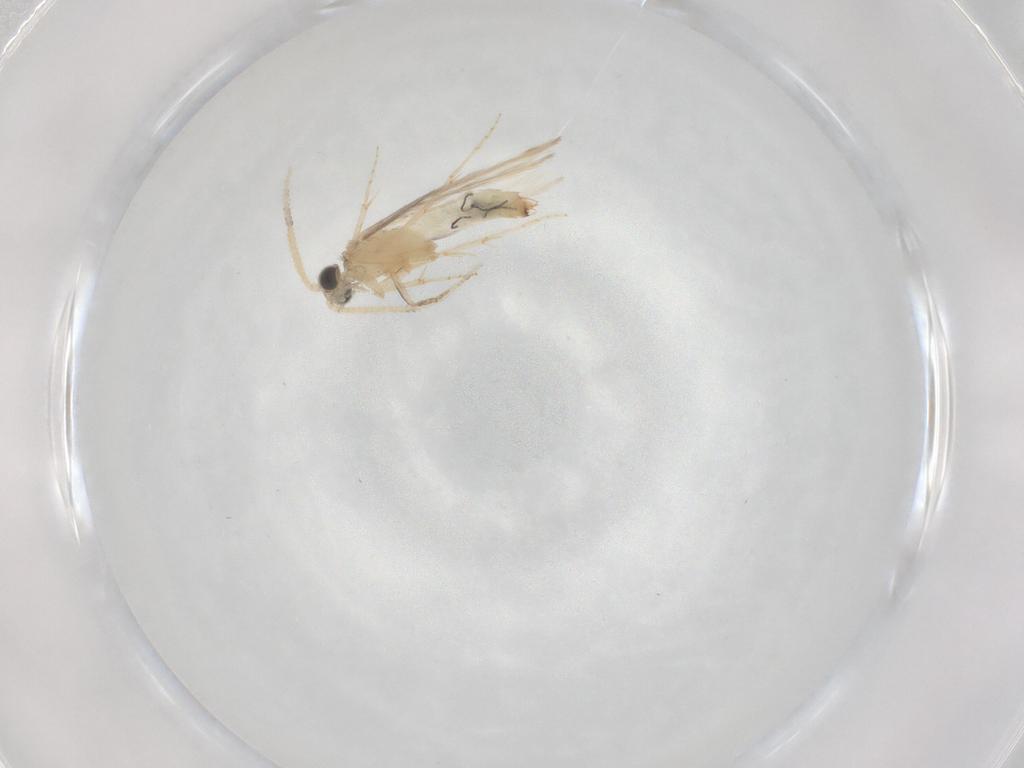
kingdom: Animalia
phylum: Arthropoda
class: Insecta
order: Trichoptera
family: Hydroptilidae
